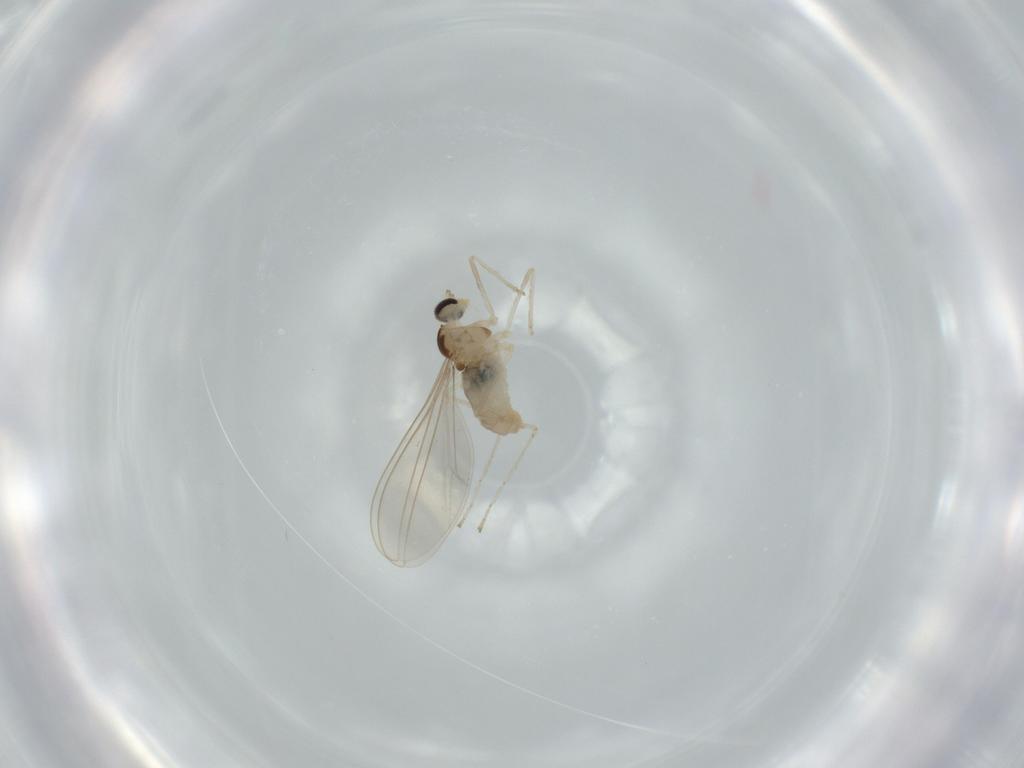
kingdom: Animalia
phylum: Arthropoda
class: Insecta
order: Diptera
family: Cecidomyiidae
